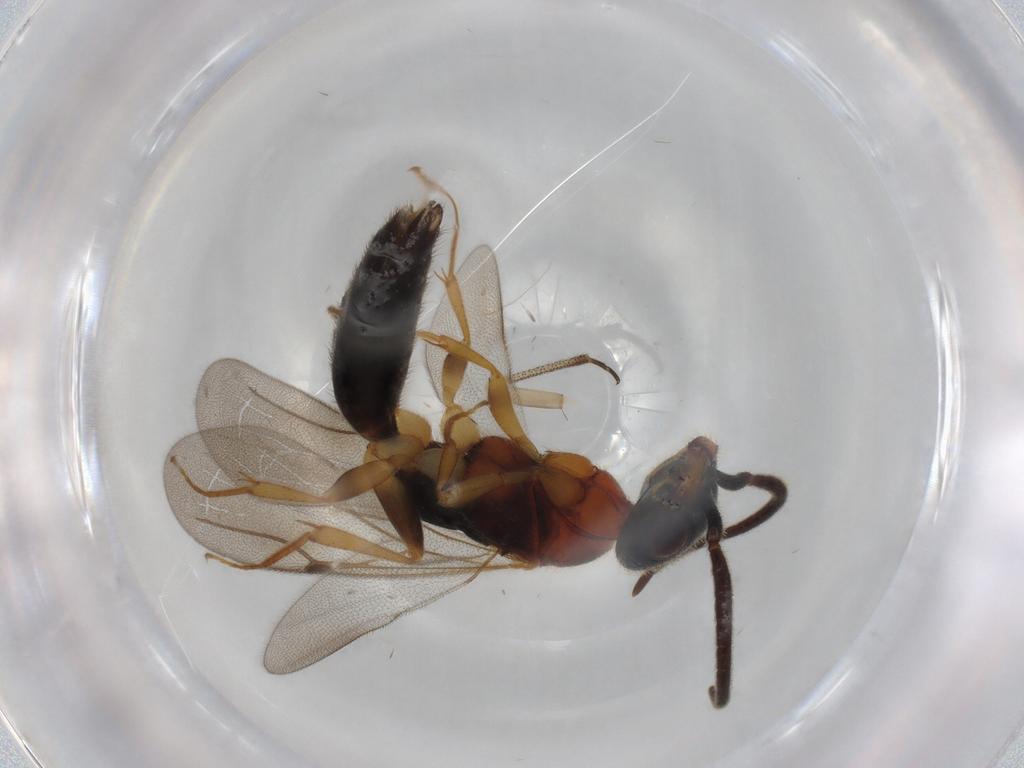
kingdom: Animalia
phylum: Arthropoda
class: Insecta
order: Hymenoptera
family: Bethylidae
